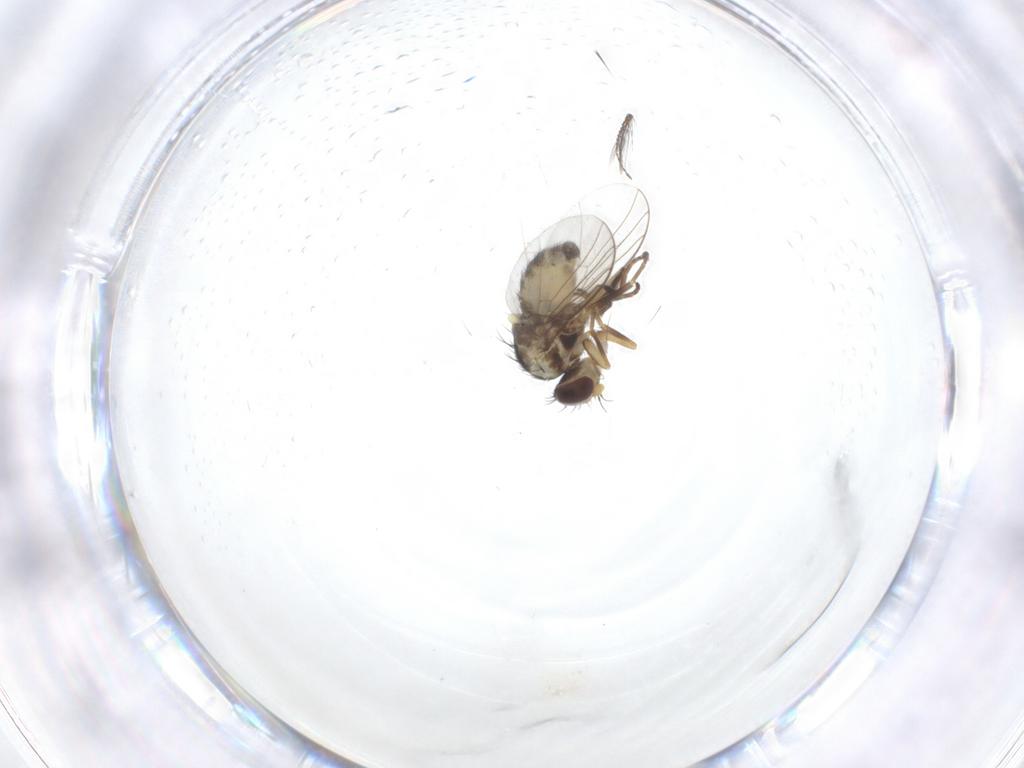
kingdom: Animalia
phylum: Arthropoda
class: Insecta
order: Diptera
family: Agromyzidae
